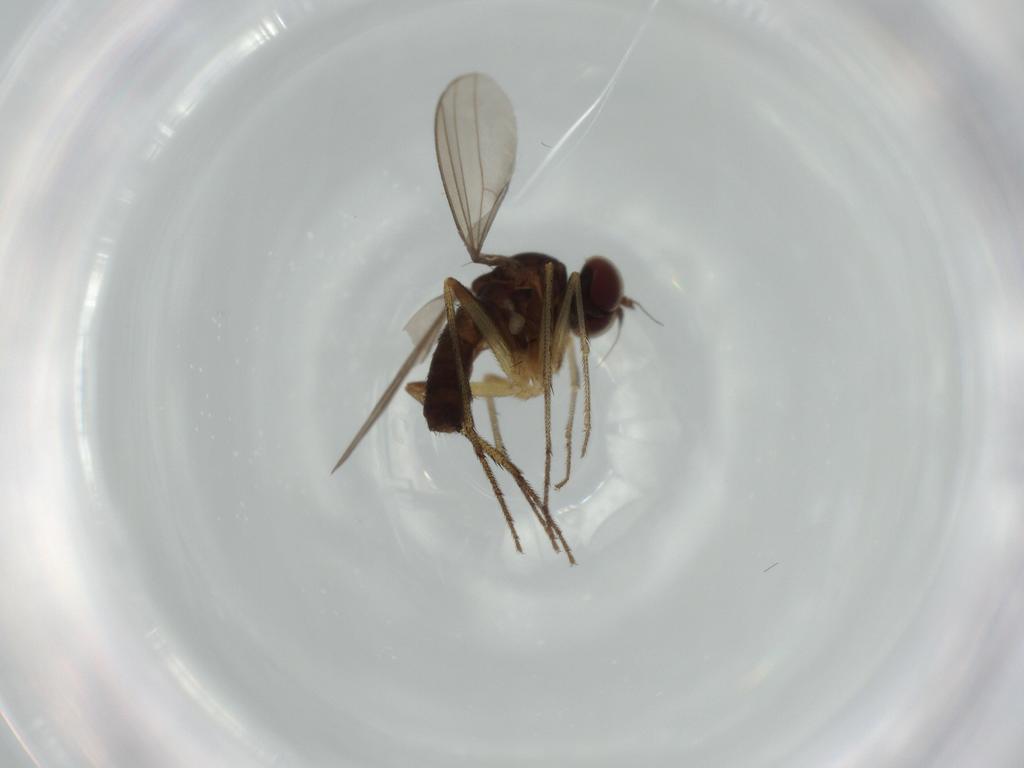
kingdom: Animalia
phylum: Arthropoda
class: Insecta
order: Diptera
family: Dolichopodidae
